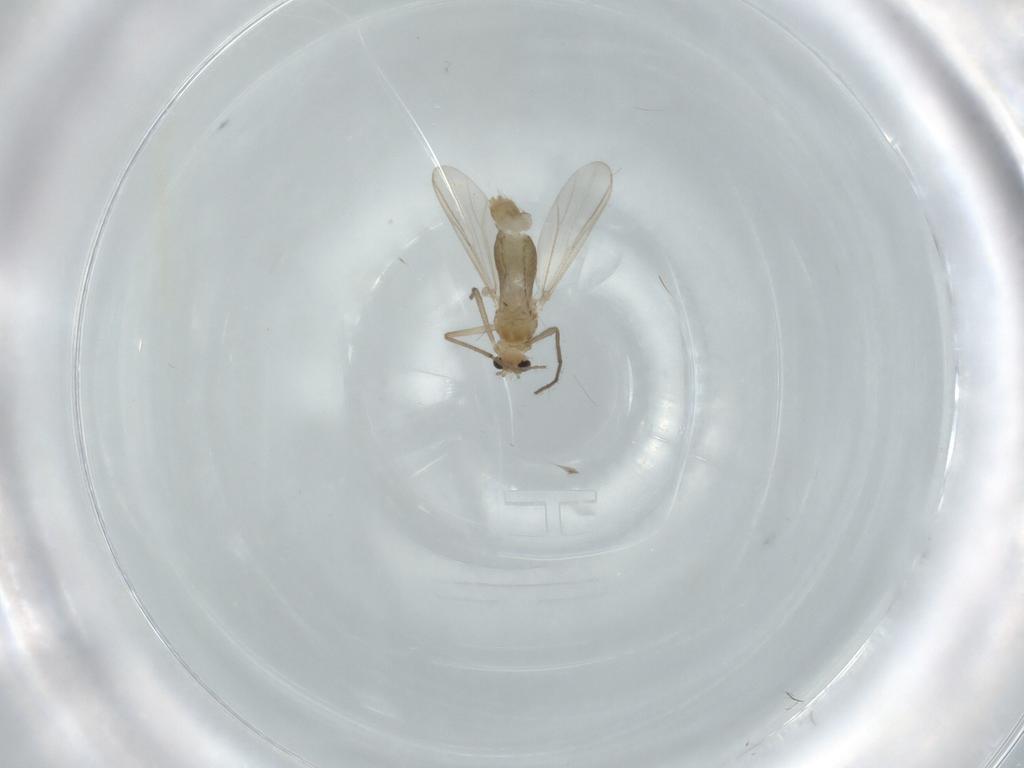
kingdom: Animalia
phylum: Arthropoda
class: Insecta
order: Diptera
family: Chironomidae
